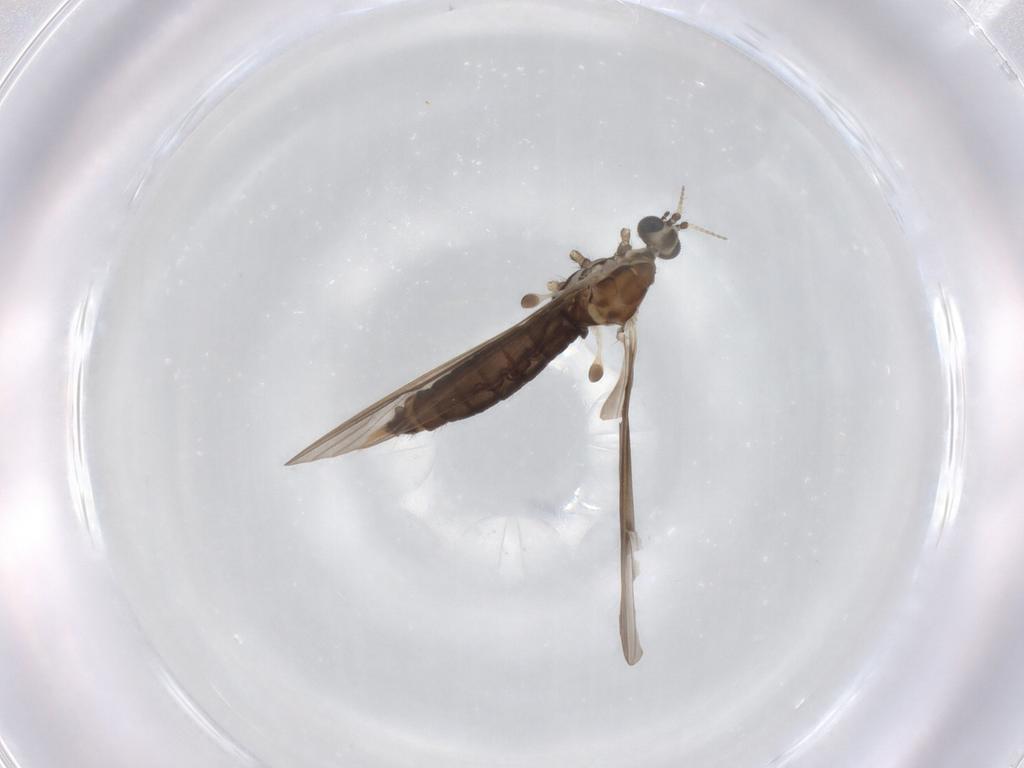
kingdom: Animalia
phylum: Arthropoda
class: Insecta
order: Diptera
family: Limoniidae
